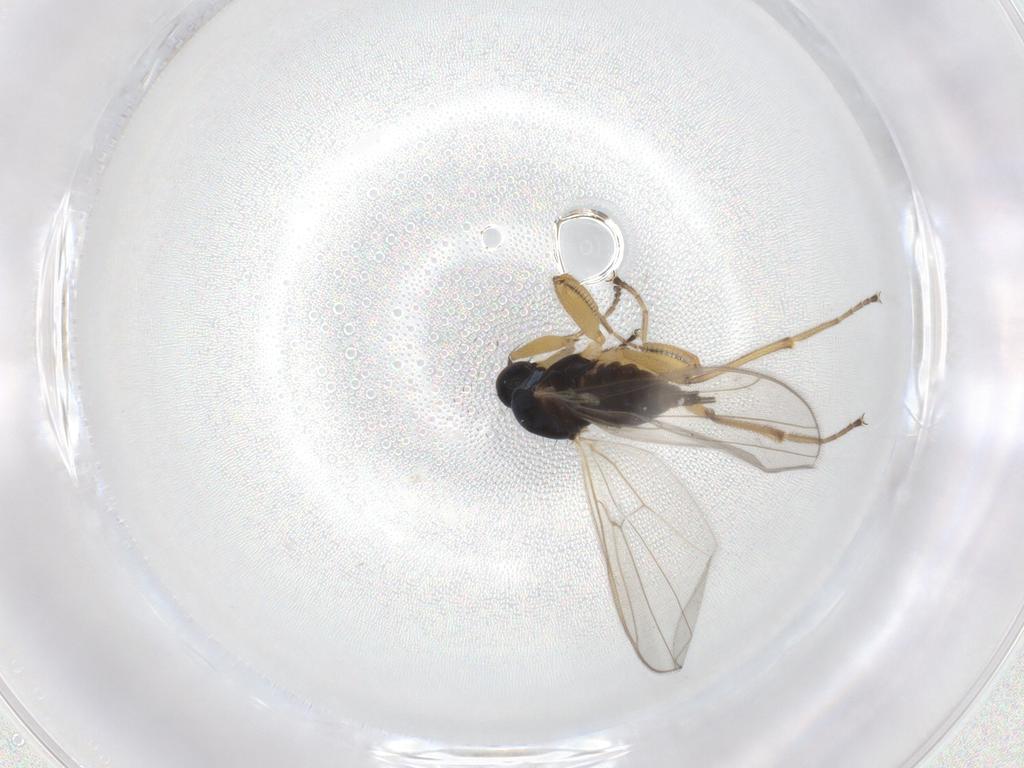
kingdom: Animalia
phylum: Arthropoda
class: Insecta
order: Diptera
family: Hybotidae
